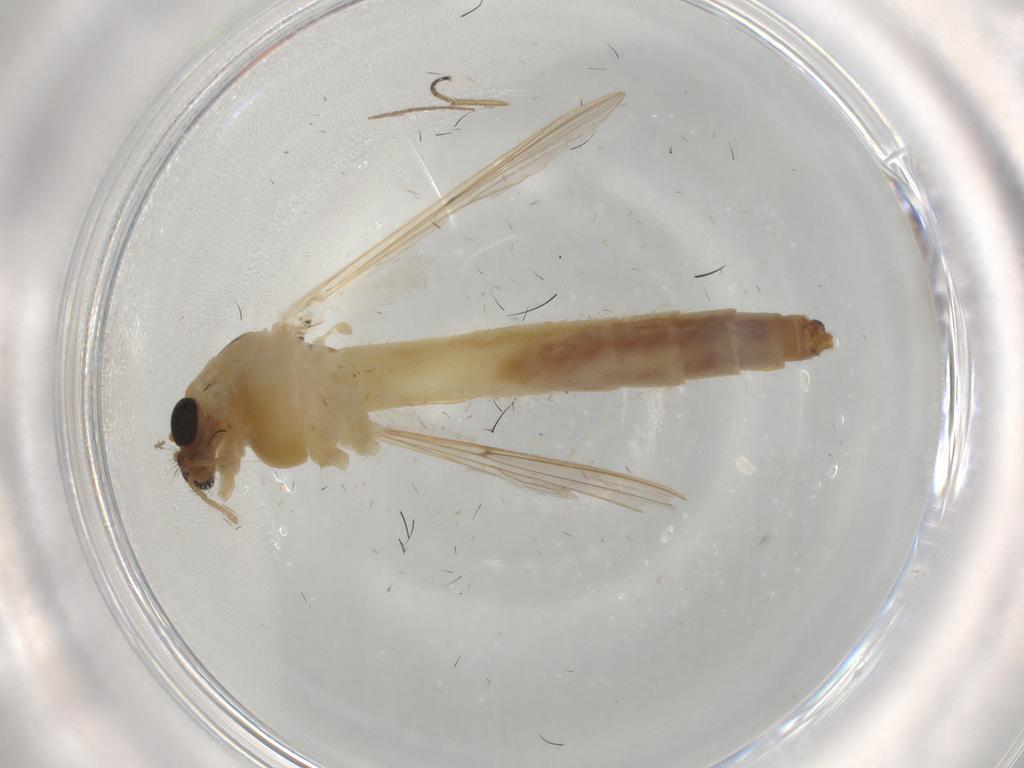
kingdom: Animalia
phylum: Arthropoda
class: Insecta
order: Diptera
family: Chironomidae
